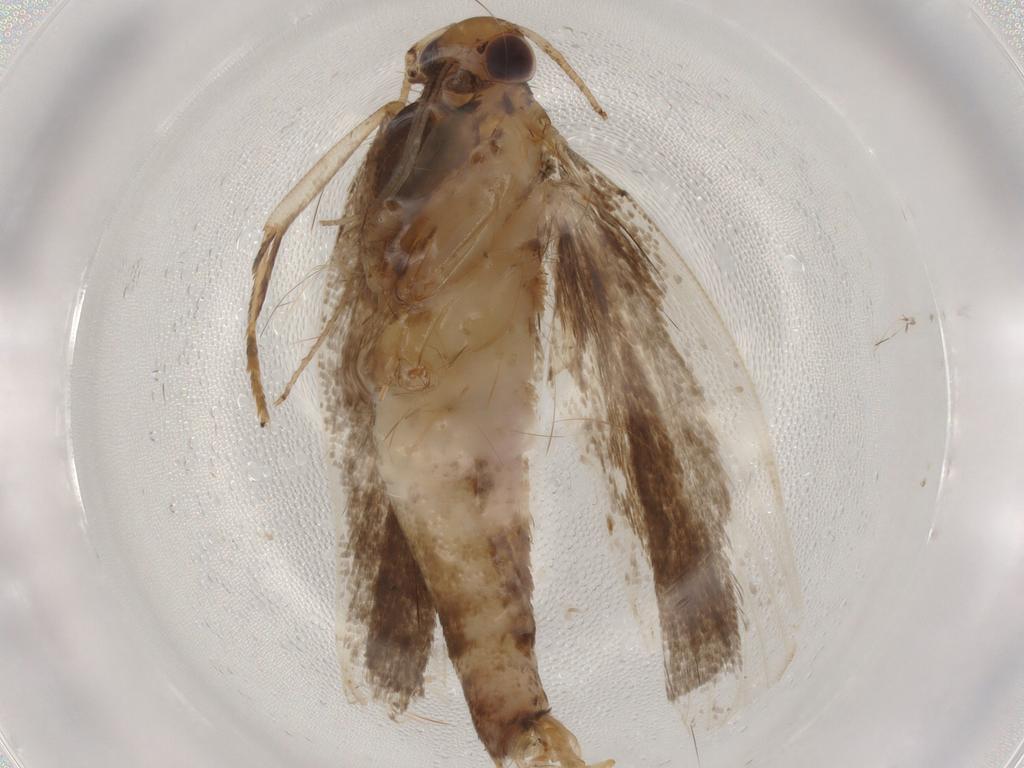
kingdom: Animalia
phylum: Arthropoda
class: Insecta
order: Lepidoptera
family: Pieridae
